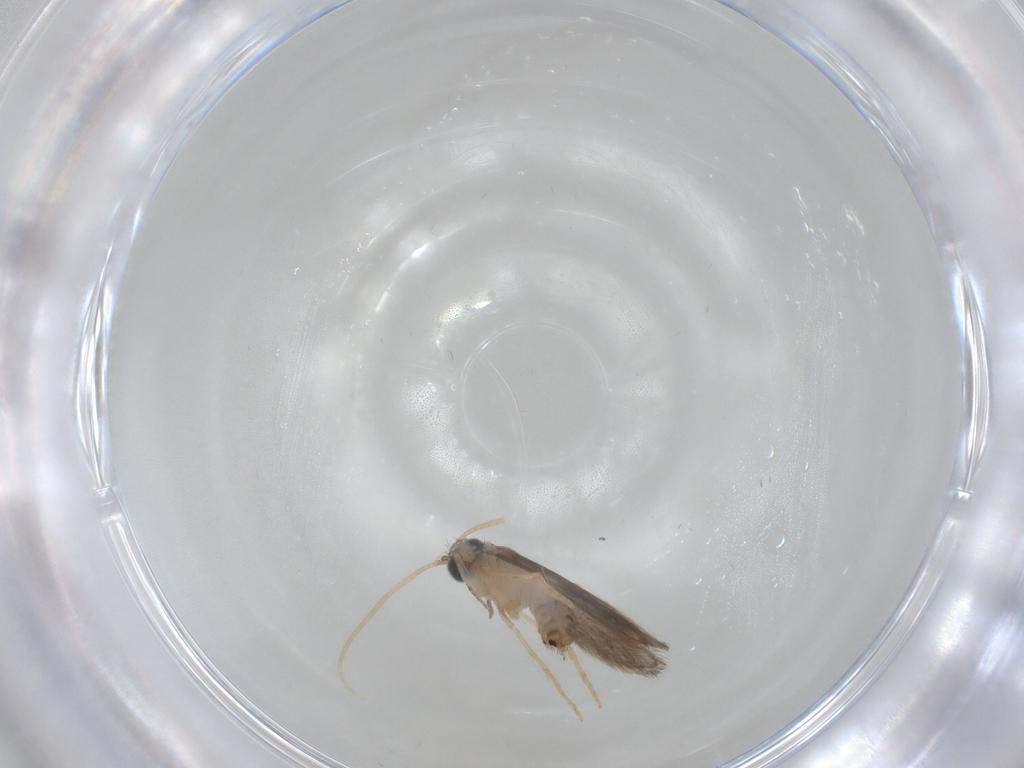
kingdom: Animalia
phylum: Arthropoda
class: Insecta
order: Trichoptera
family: Hydroptilidae
